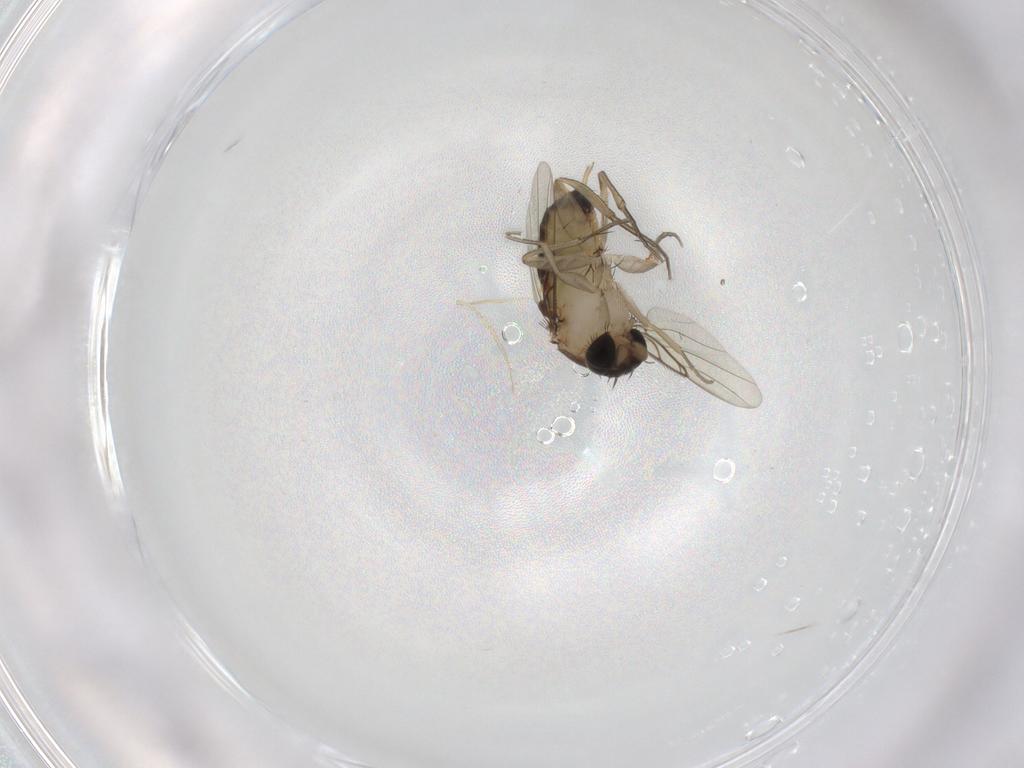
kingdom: Animalia
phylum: Arthropoda
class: Insecta
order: Diptera
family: Phoridae
